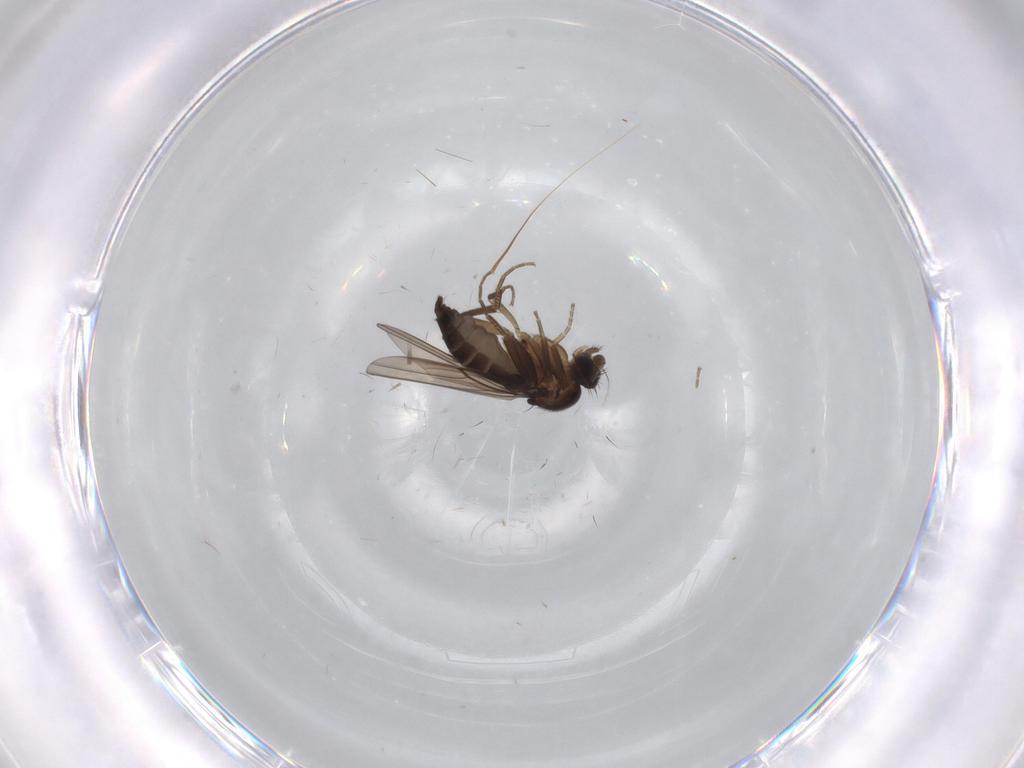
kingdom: Animalia
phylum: Arthropoda
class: Insecta
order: Diptera
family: Phoridae
